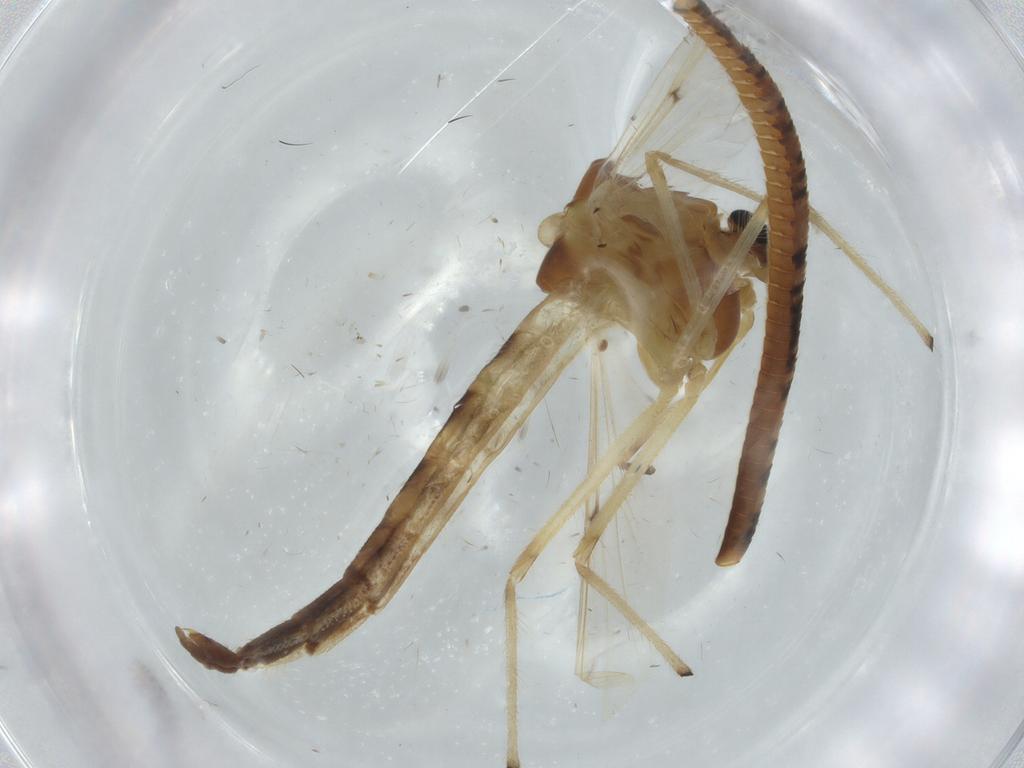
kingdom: Animalia
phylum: Arthropoda
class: Insecta
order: Diptera
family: Chironomidae
